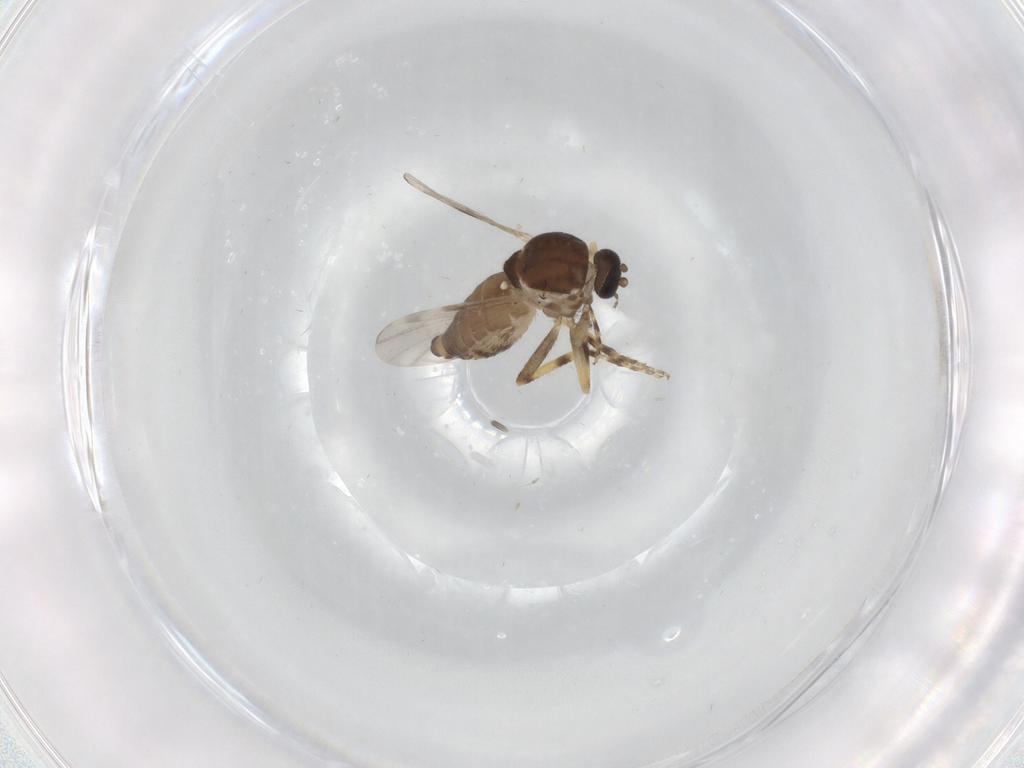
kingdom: Animalia
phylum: Arthropoda
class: Insecta
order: Diptera
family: Ceratopogonidae
